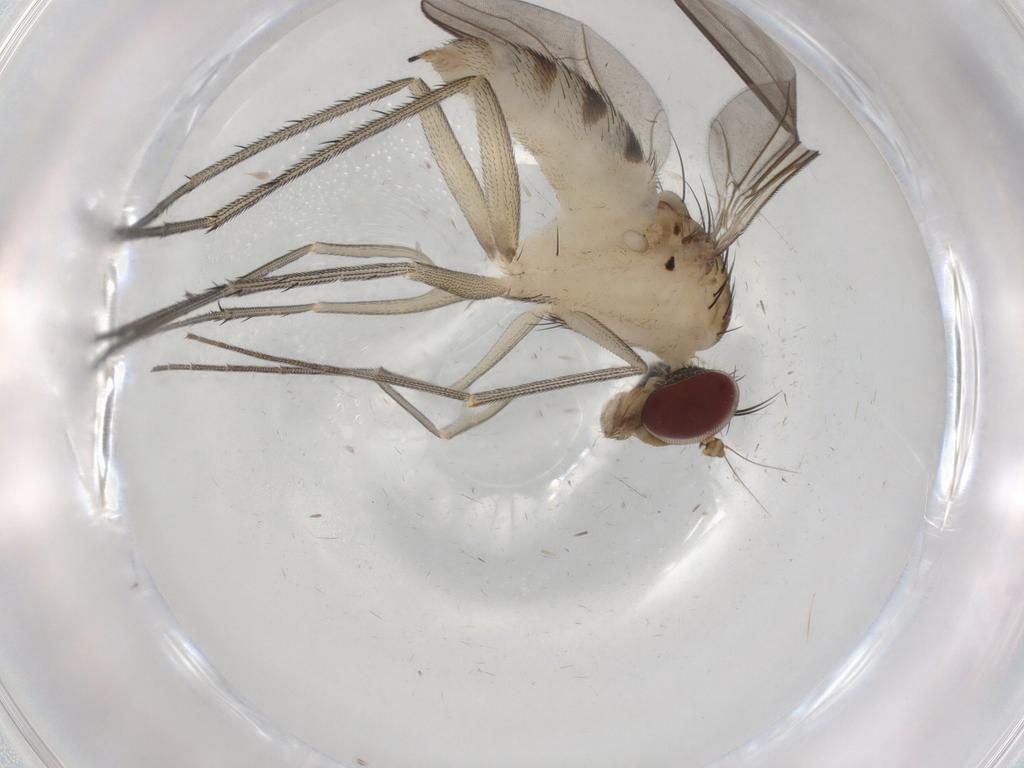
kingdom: Animalia
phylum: Arthropoda
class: Insecta
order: Diptera
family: Dolichopodidae
